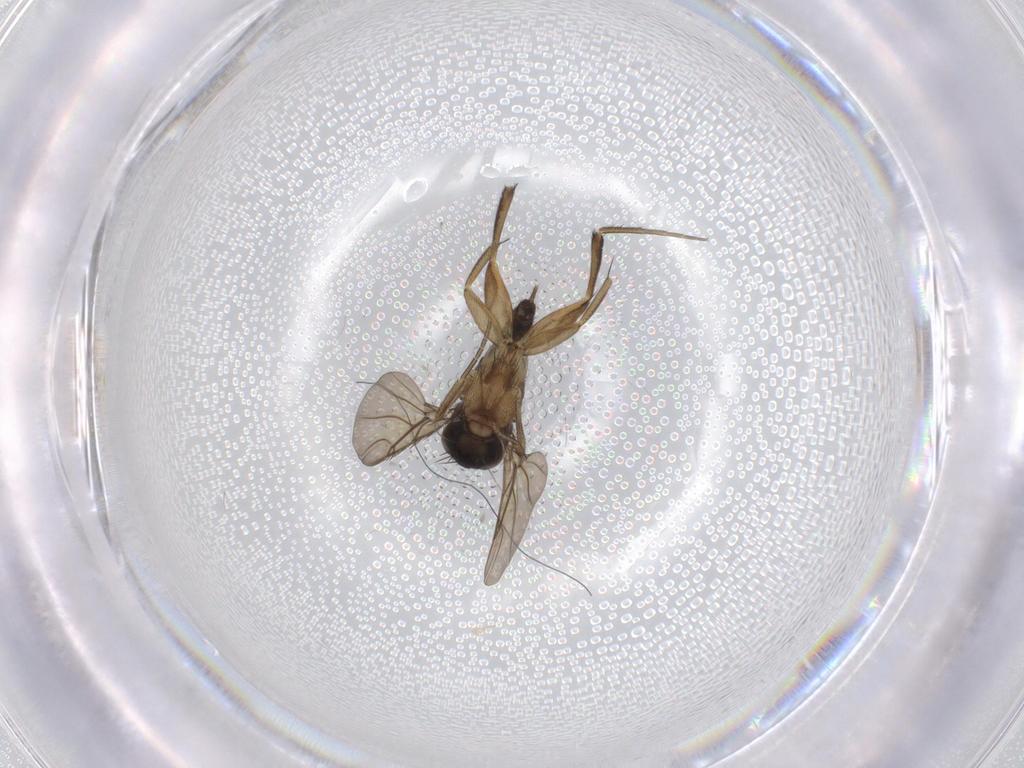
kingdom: Animalia
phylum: Arthropoda
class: Insecta
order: Diptera
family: Phoridae
